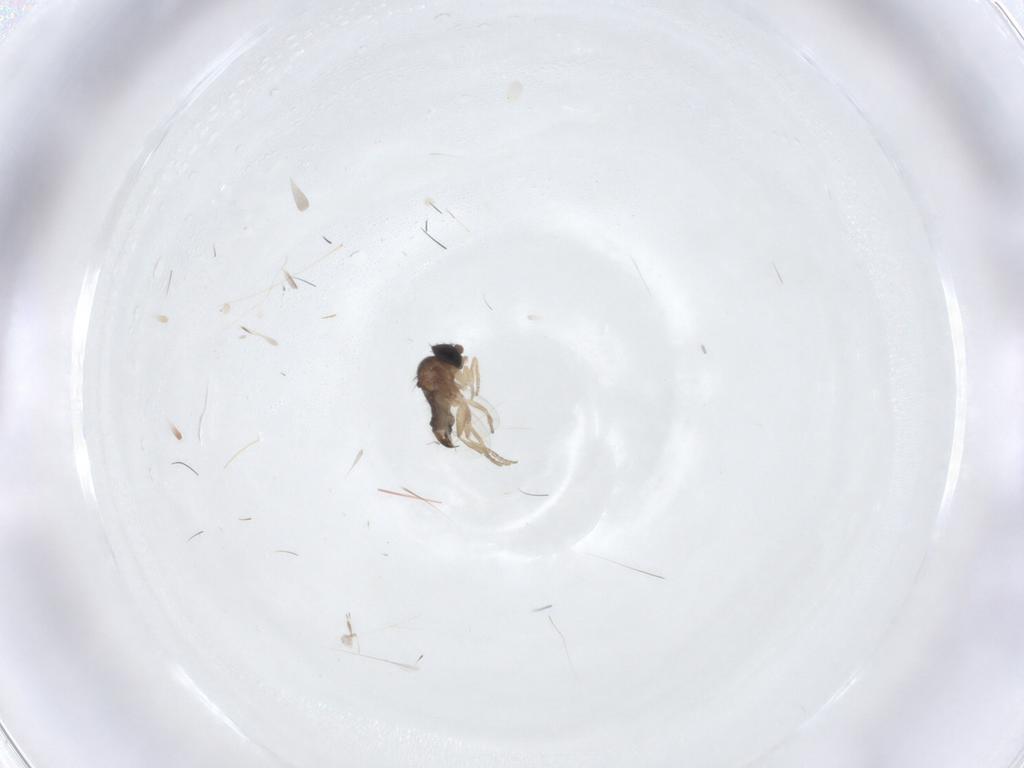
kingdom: Animalia
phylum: Arthropoda
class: Insecta
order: Diptera
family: Phoridae
